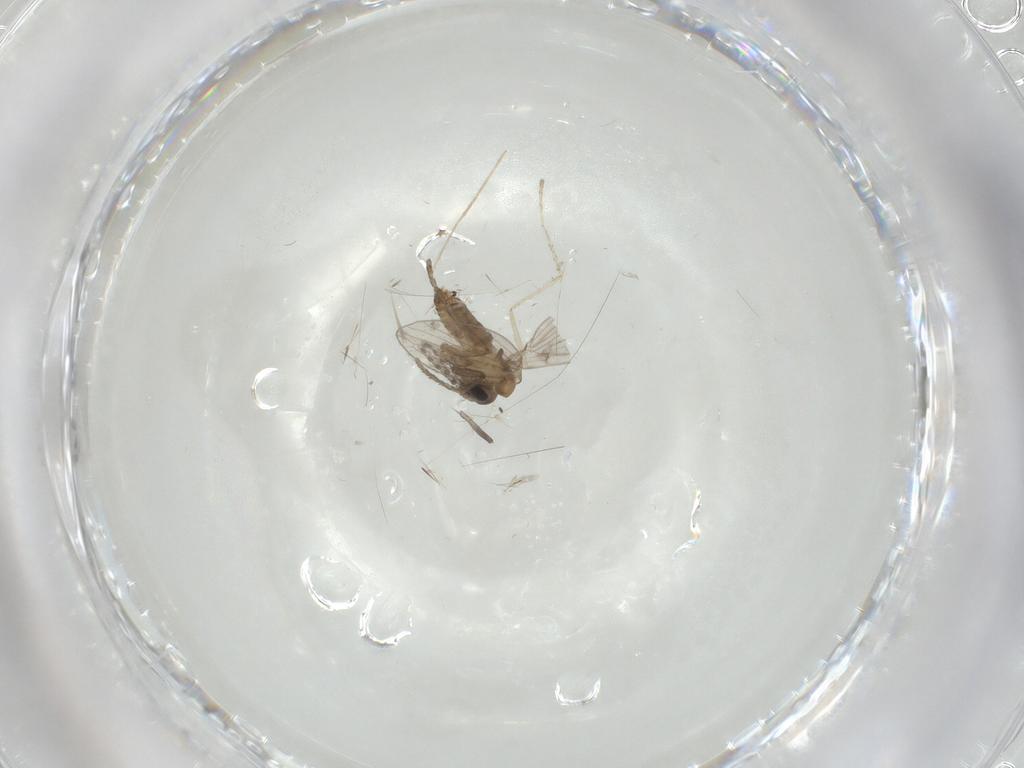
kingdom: Animalia
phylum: Arthropoda
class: Insecta
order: Diptera
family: Cecidomyiidae
